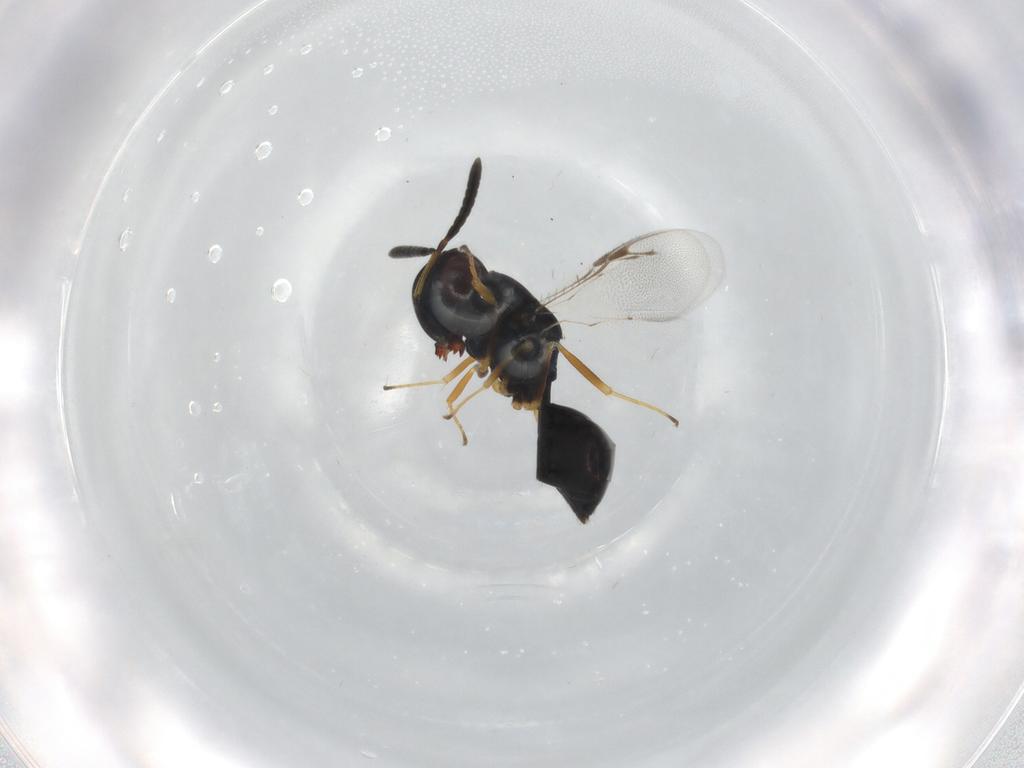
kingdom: Animalia
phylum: Arthropoda
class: Insecta
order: Hymenoptera
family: Pteromalidae
